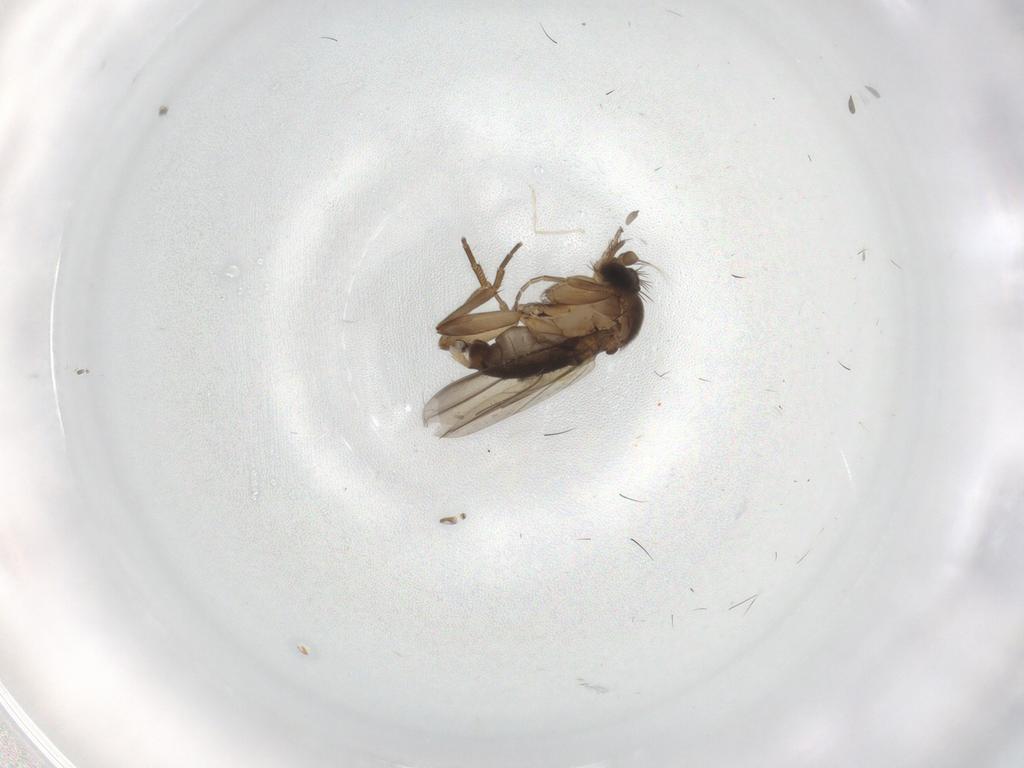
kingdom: Animalia
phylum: Arthropoda
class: Insecta
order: Diptera
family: Phoridae
